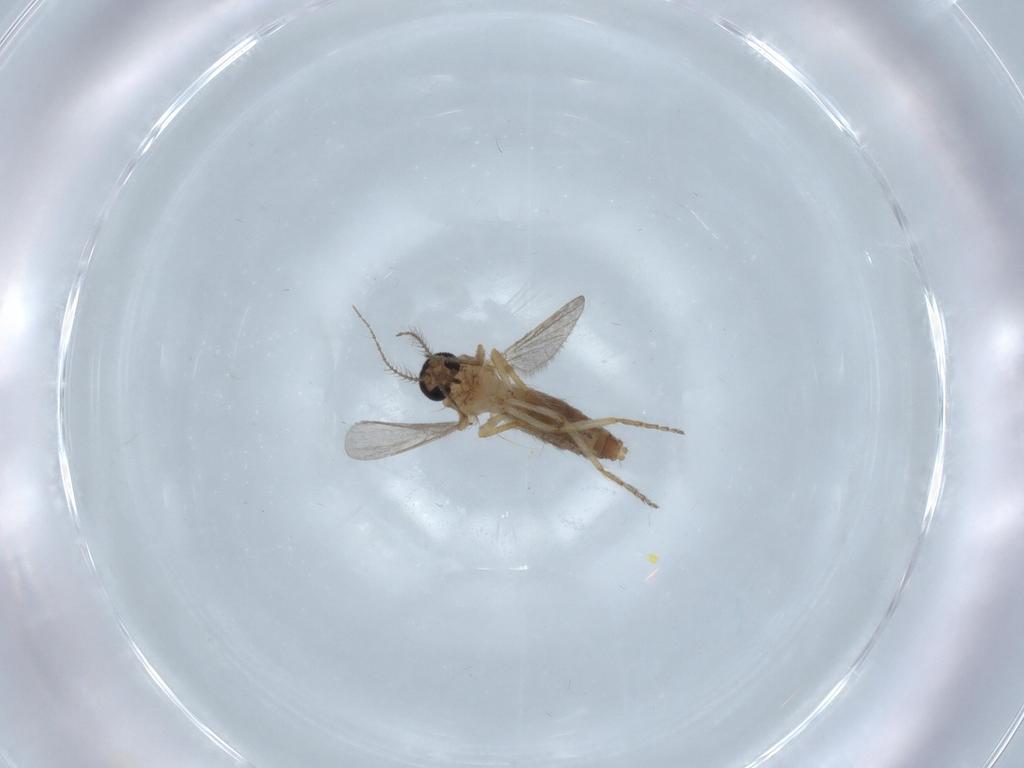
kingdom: Animalia
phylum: Arthropoda
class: Insecta
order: Diptera
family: Ceratopogonidae
